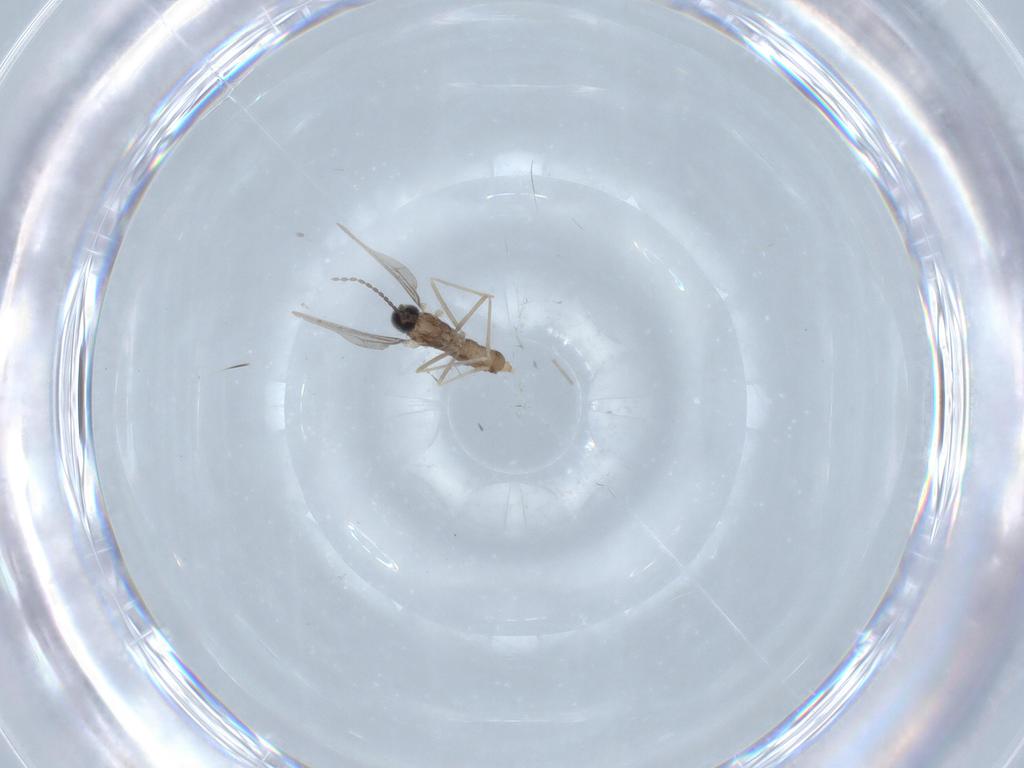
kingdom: Animalia
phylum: Arthropoda
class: Insecta
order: Diptera
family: Cecidomyiidae
